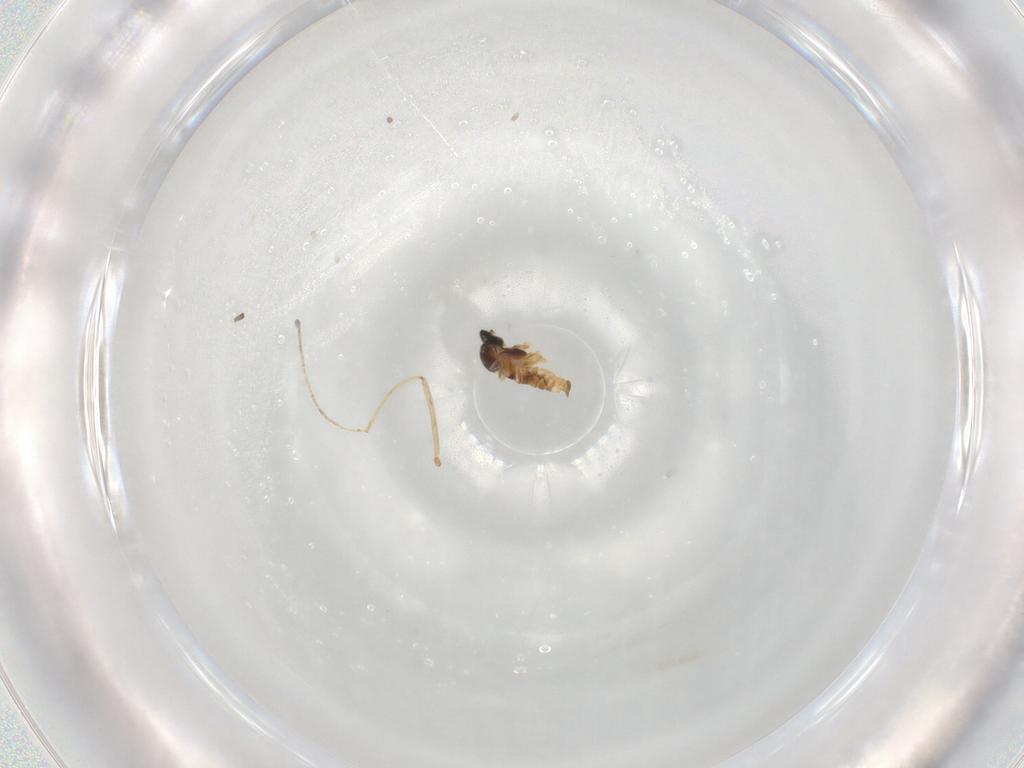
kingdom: Animalia
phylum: Arthropoda
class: Insecta
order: Diptera
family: Cecidomyiidae
